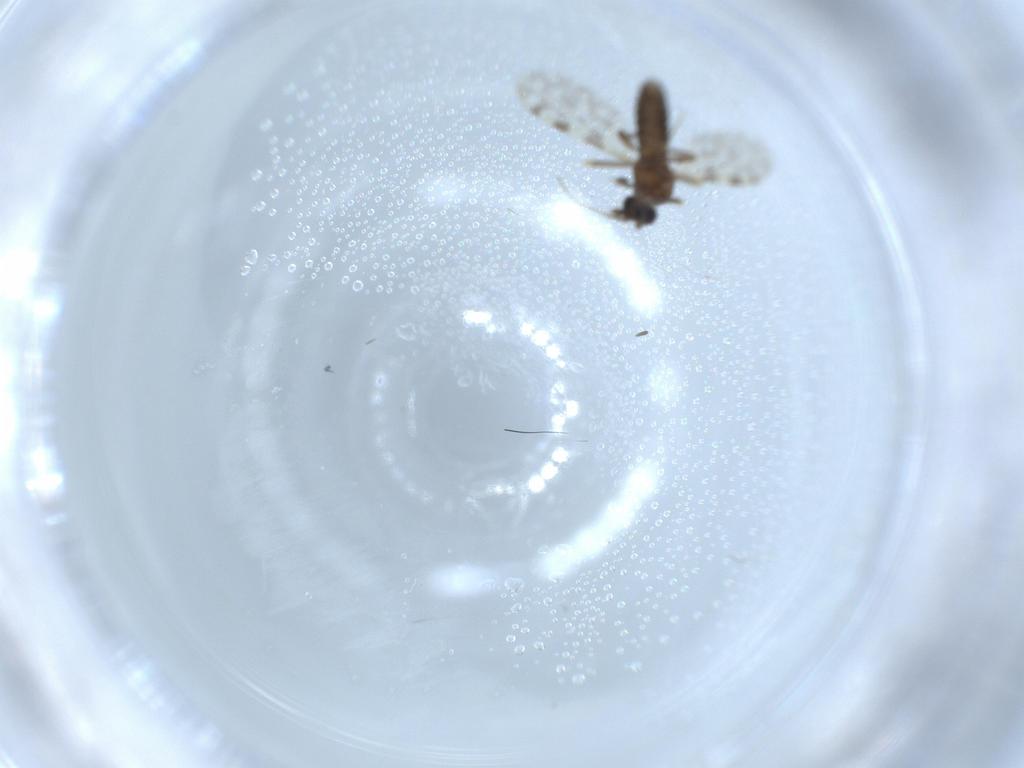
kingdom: Animalia
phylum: Arthropoda
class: Insecta
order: Diptera
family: Ceratopogonidae
